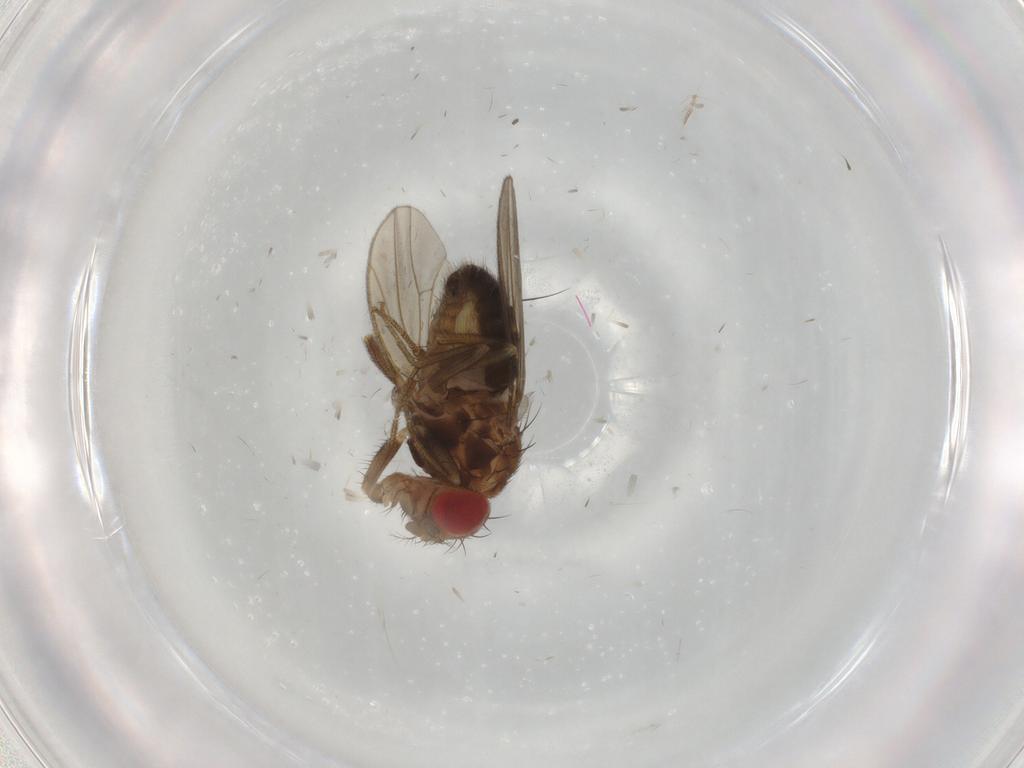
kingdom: Animalia
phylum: Arthropoda
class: Insecta
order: Diptera
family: Drosophilidae
